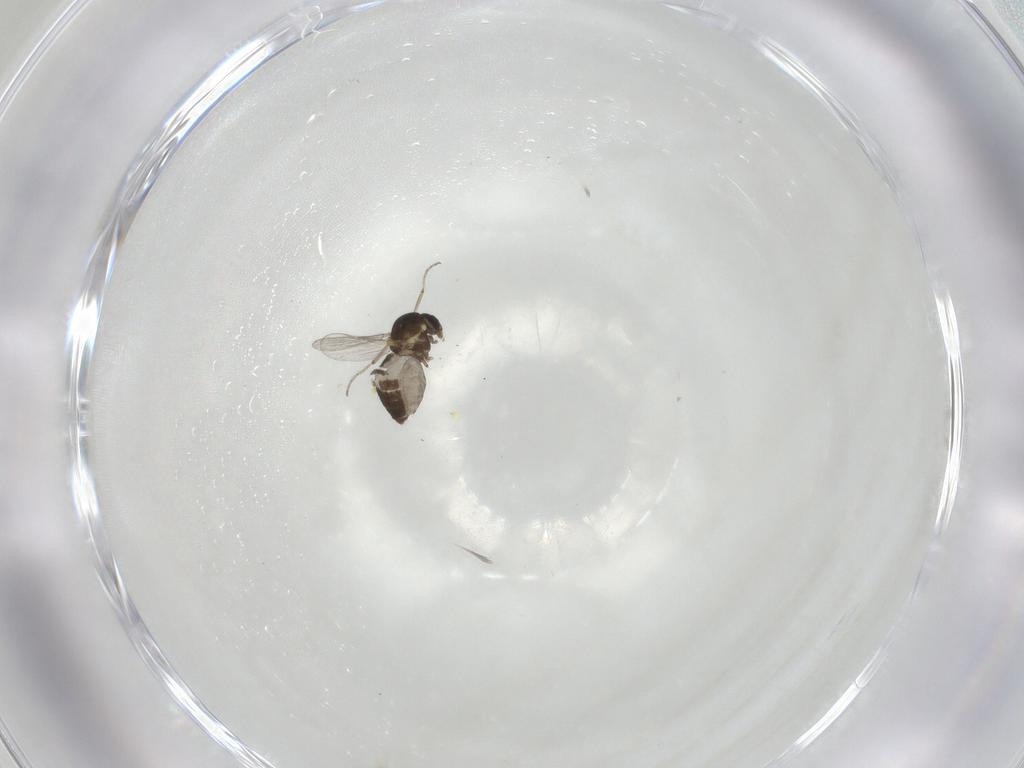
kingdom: Animalia
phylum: Arthropoda
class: Insecta
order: Diptera
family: Ceratopogonidae
